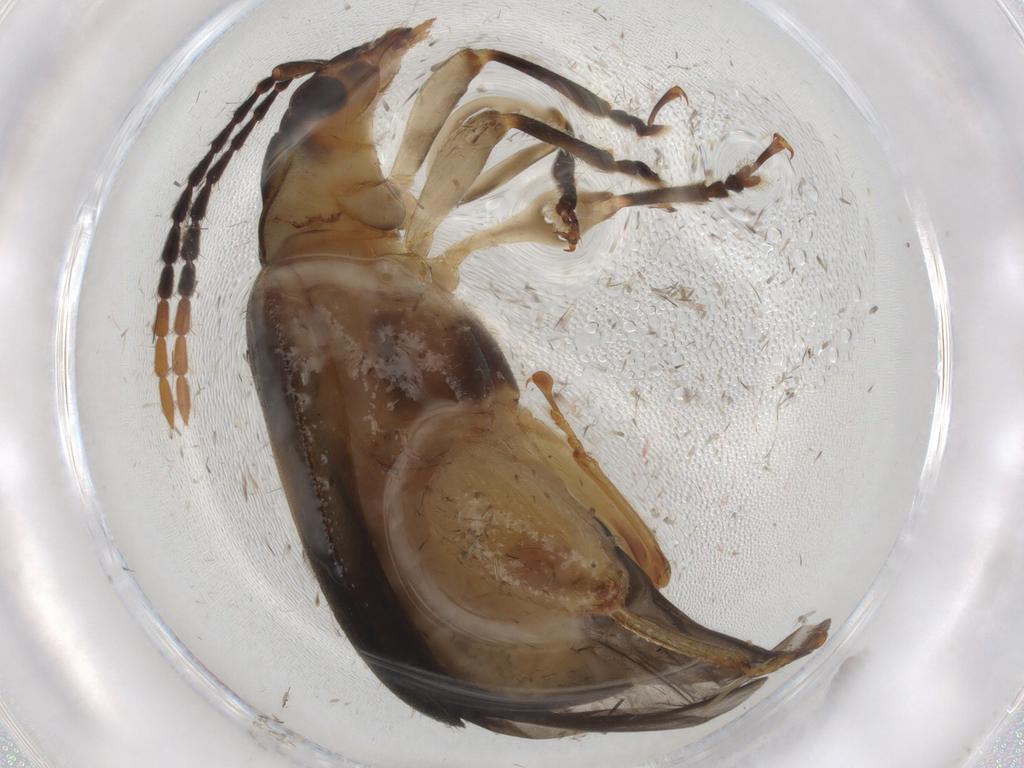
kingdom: Animalia
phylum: Arthropoda
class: Insecta
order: Coleoptera
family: Chrysomelidae
